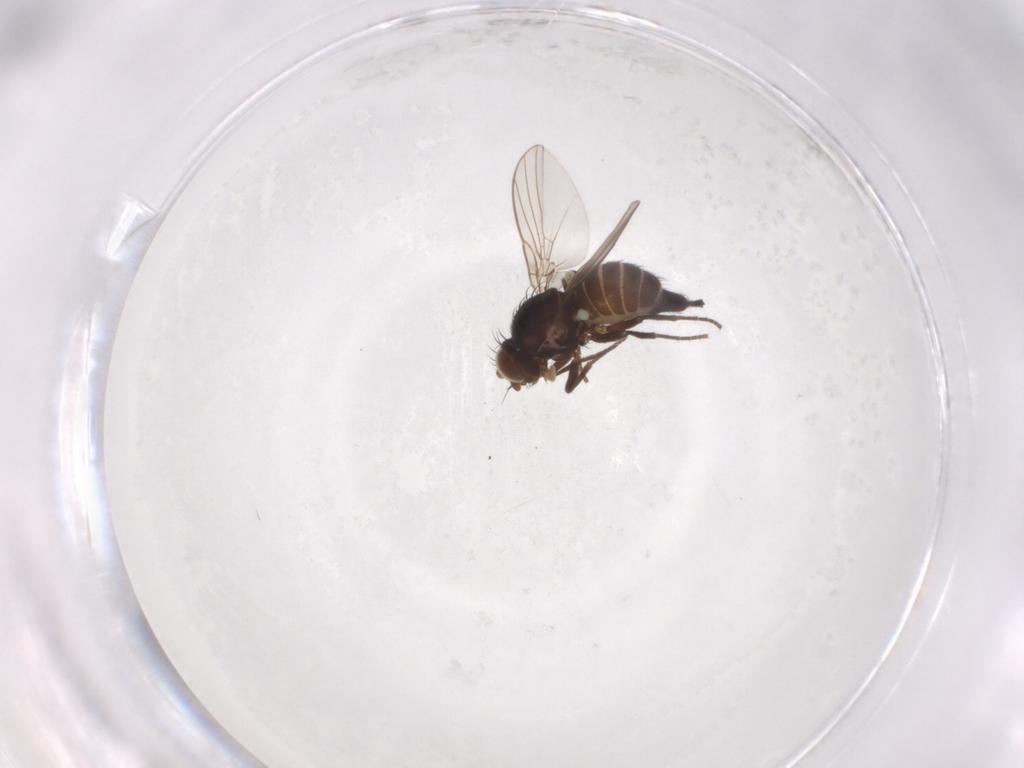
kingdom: Animalia
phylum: Arthropoda
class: Insecta
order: Diptera
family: Agromyzidae
